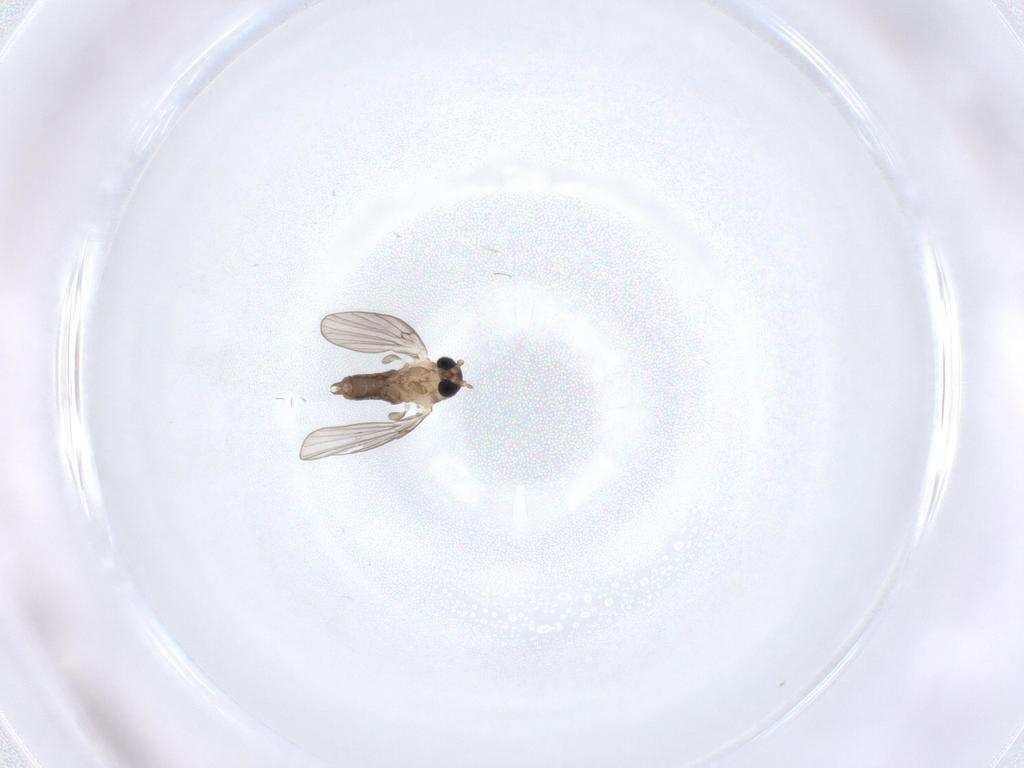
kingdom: Animalia
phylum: Arthropoda
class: Insecta
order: Diptera
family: Psychodidae
